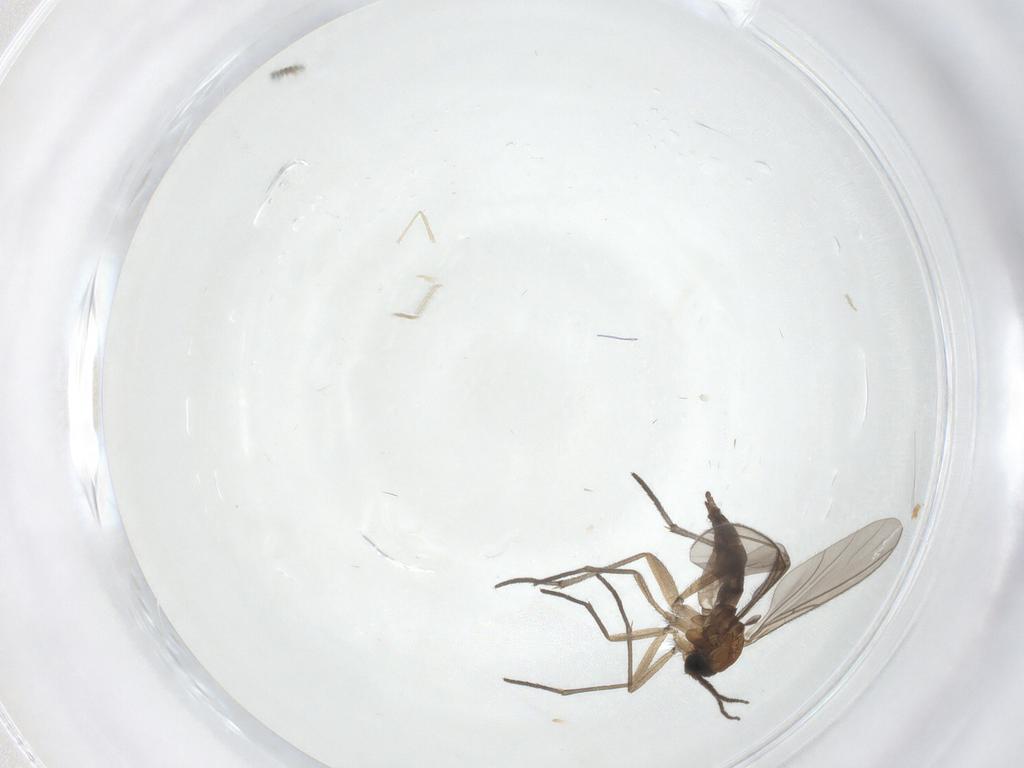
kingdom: Animalia
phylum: Arthropoda
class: Insecta
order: Diptera
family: Sciaridae
